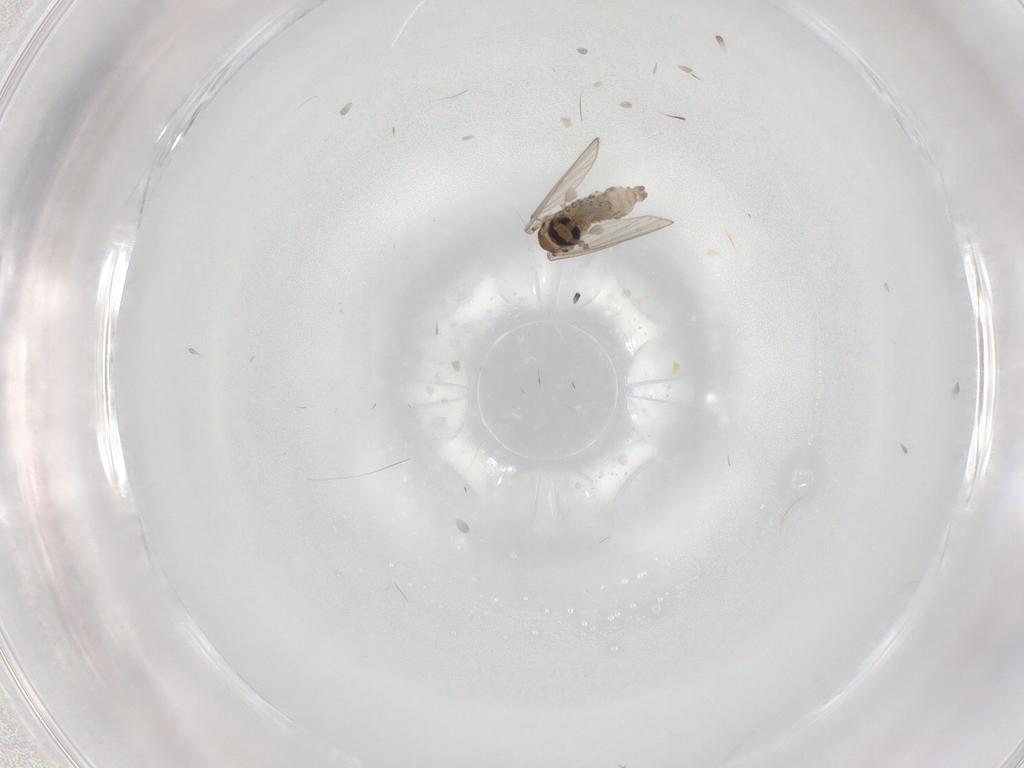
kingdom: Animalia
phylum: Arthropoda
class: Insecta
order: Diptera
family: Psychodidae
